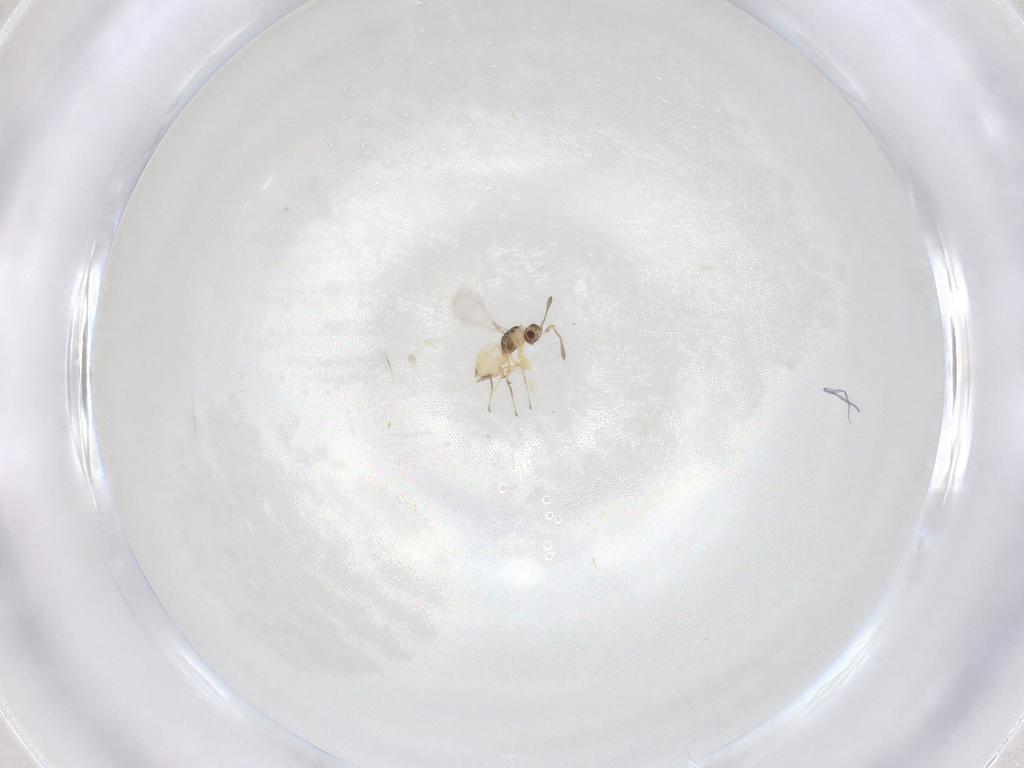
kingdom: Animalia
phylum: Arthropoda
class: Insecta
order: Hymenoptera
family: Mymaridae
